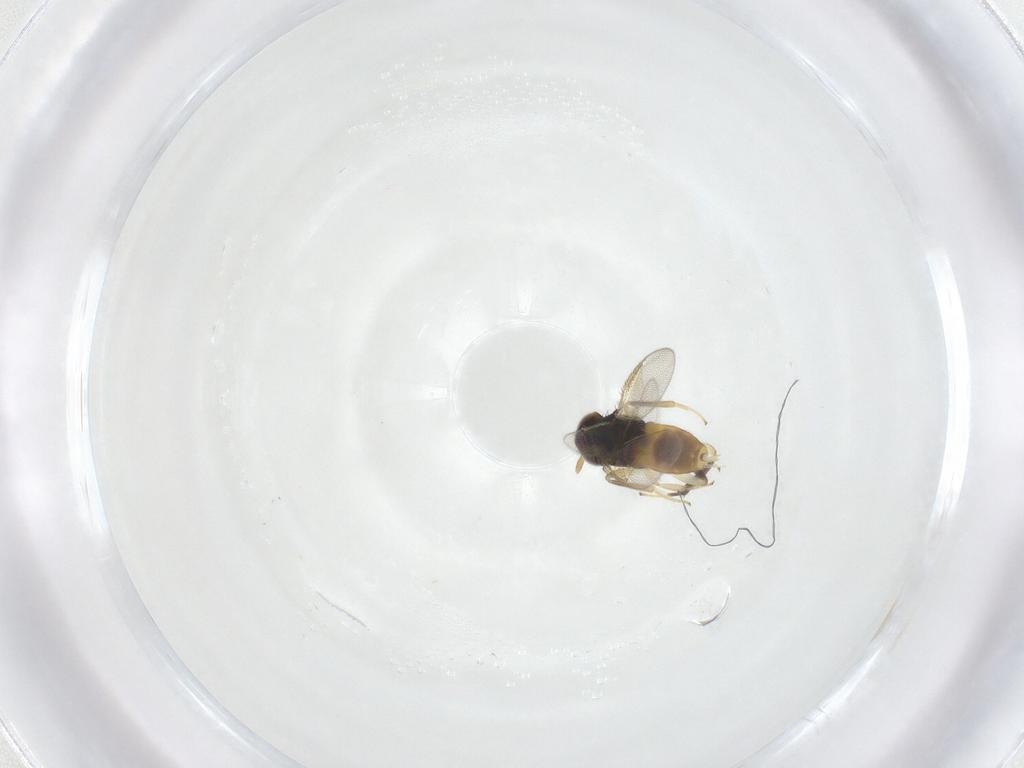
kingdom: Animalia
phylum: Arthropoda
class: Insecta
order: Hymenoptera
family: Aphelinidae
